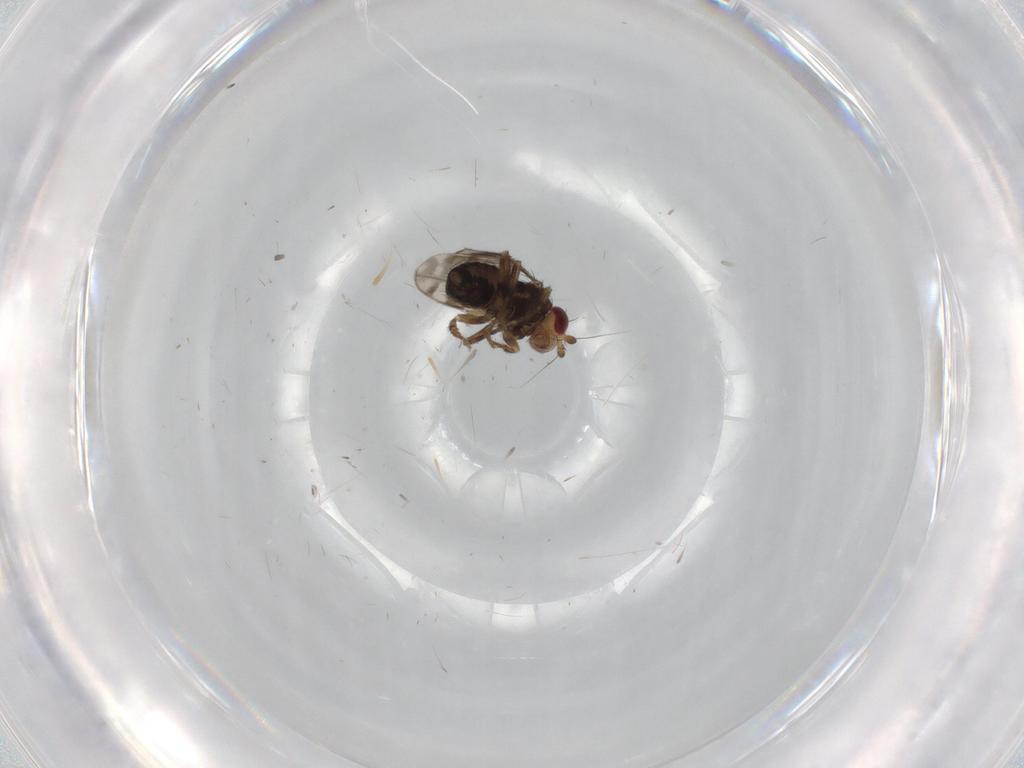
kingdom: Animalia
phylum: Arthropoda
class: Insecta
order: Diptera
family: Sphaeroceridae
